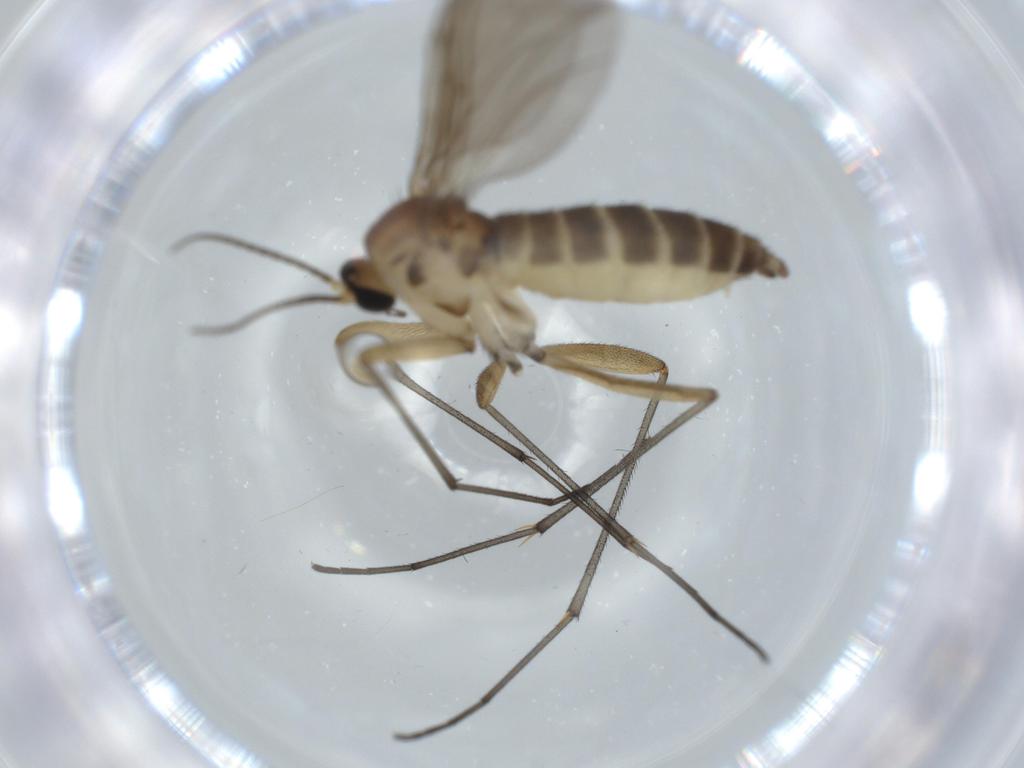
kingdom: Animalia
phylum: Arthropoda
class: Insecta
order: Diptera
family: Sciaridae
